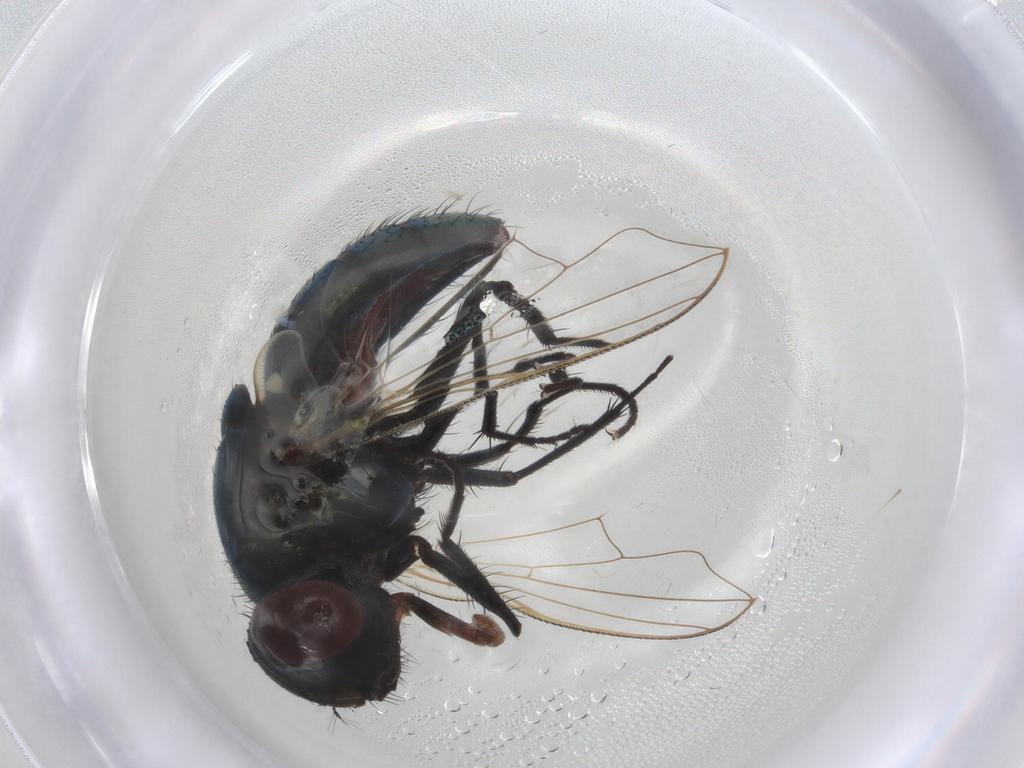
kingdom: Animalia
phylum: Arthropoda
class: Insecta
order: Diptera
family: Muscidae
